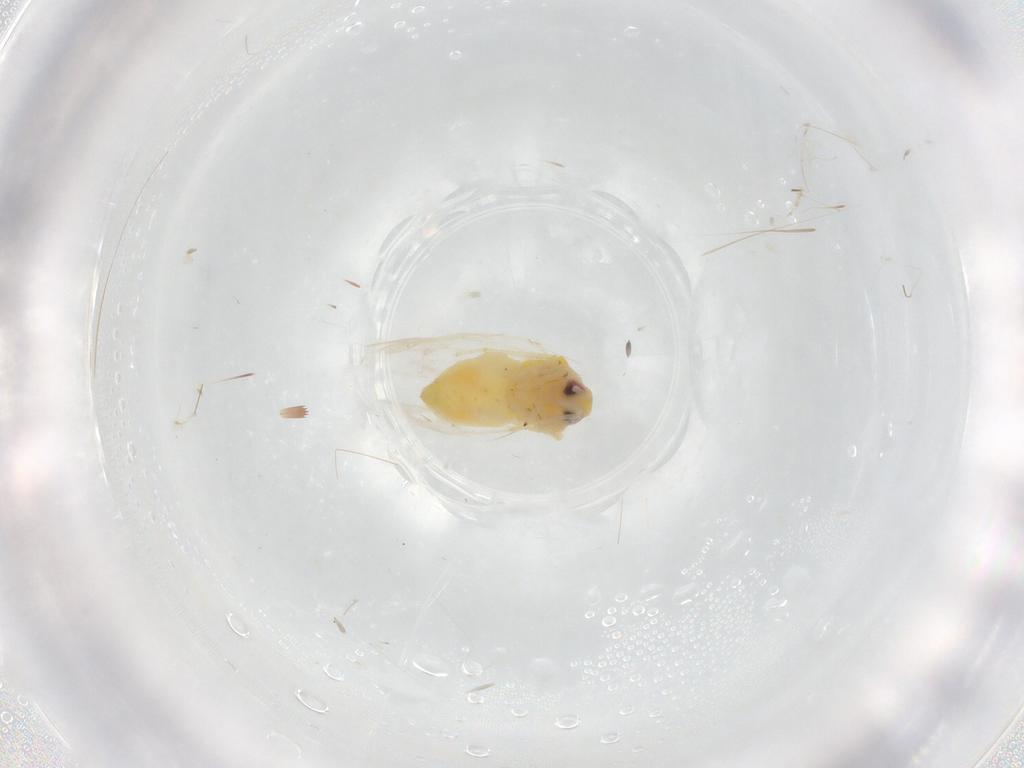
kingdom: Animalia
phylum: Arthropoda
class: Insecta
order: Hemiptera
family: Aleyrodidae
